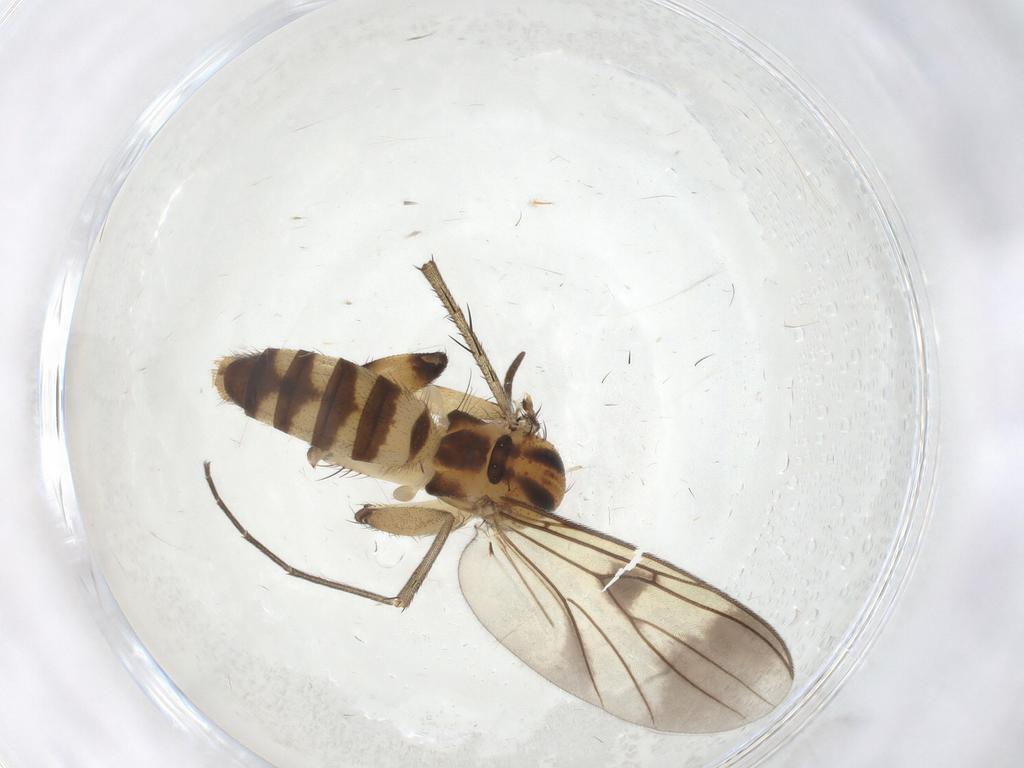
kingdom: Animalia
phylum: Arthropoda
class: Insecta
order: Diptera
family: Mycetophilidae
